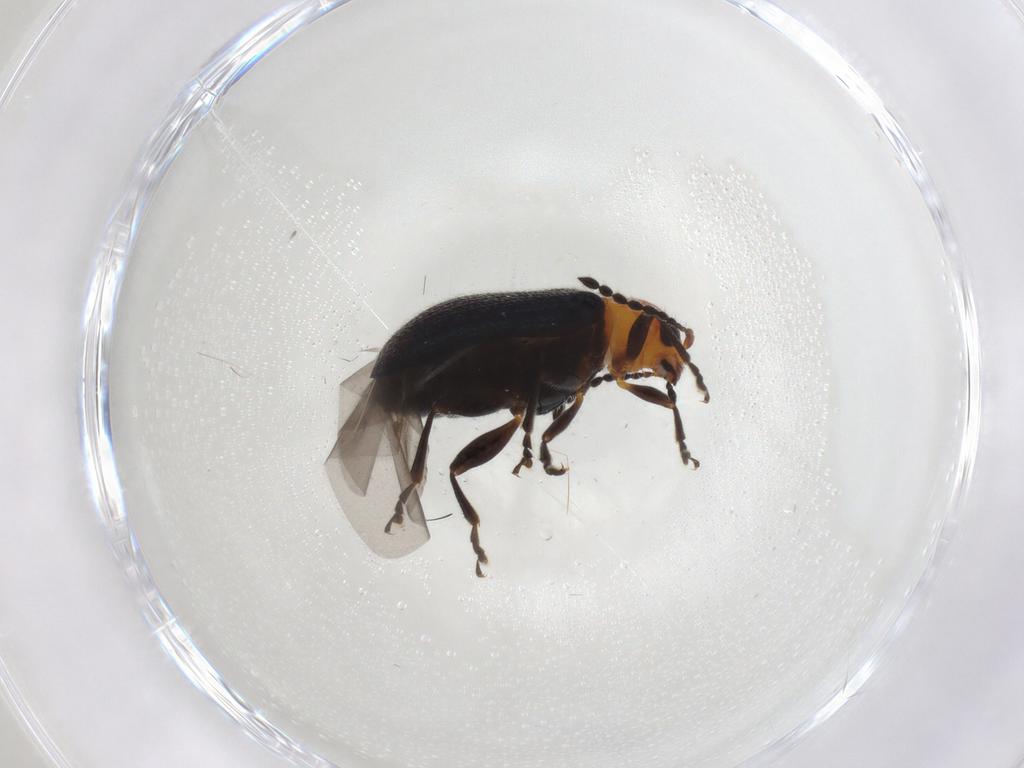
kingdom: Animalia
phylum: Arthropoda
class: Insecta
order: Coleoptera
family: Chrysomelidae
